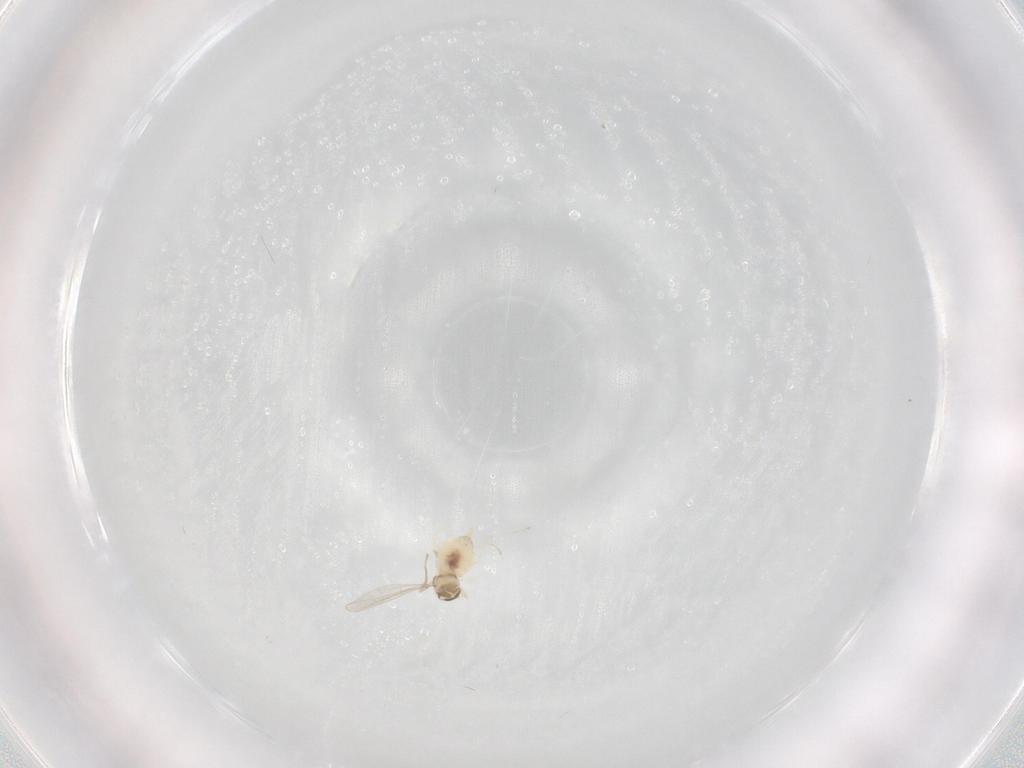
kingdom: Animalia
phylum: Arthropoda
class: Insecta
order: Diptera
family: Cecidomyiidae
